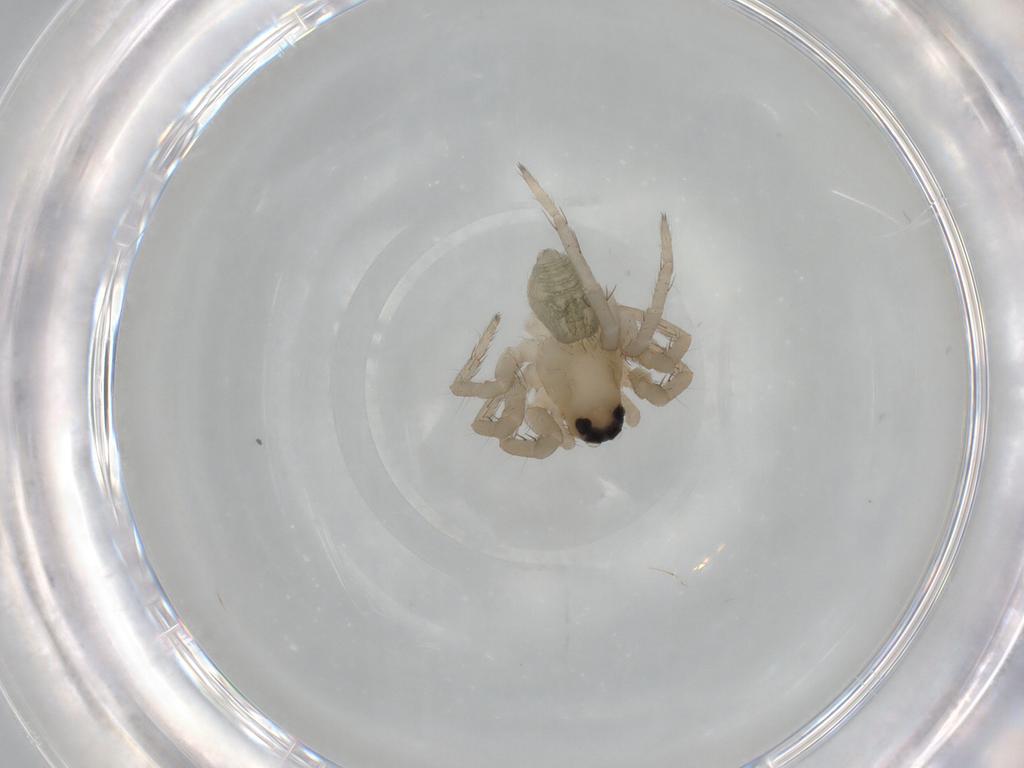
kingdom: Animalia
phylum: Arthropoda
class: Arachnida
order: Araneae
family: Lycosidae
